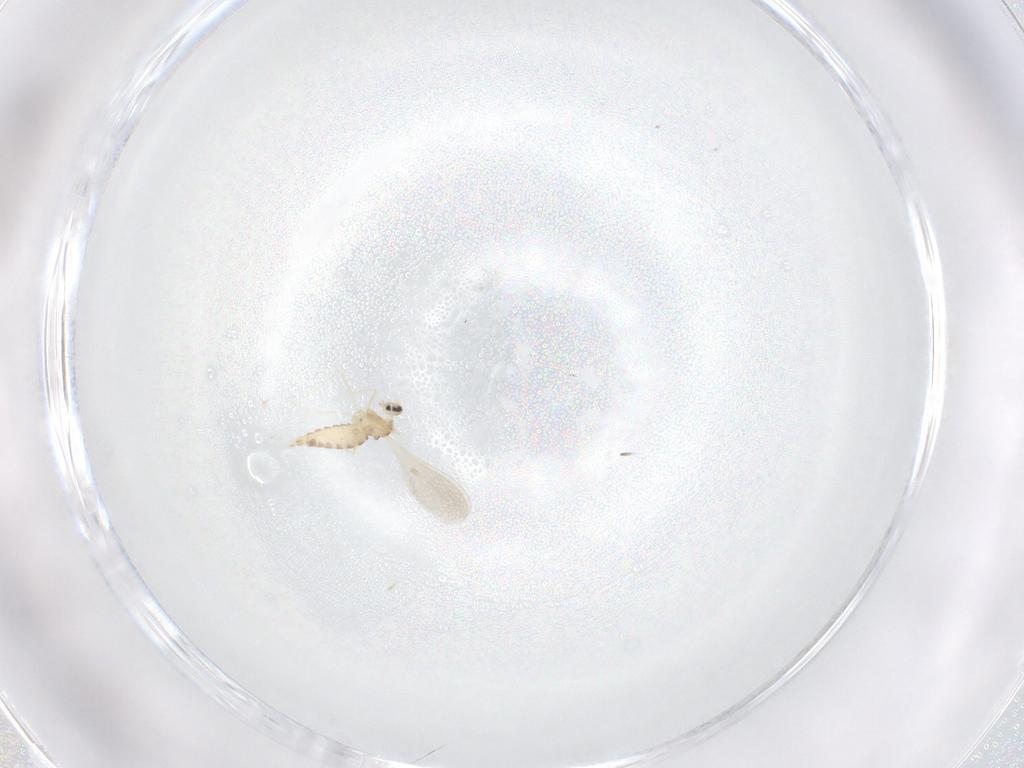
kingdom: Animalia
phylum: Arthropoda
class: Insecta
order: Diptera
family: Cecidomyiidae
